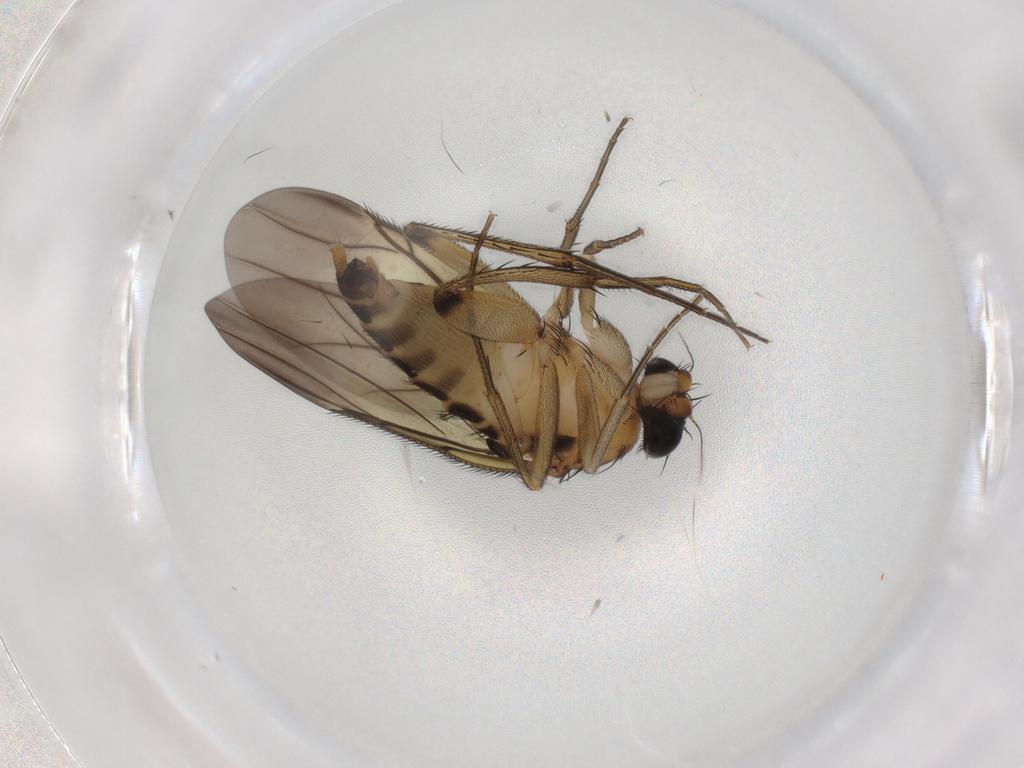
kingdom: Animalia
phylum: Arthropoda
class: Insecta
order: Diptera
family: Phoridae
